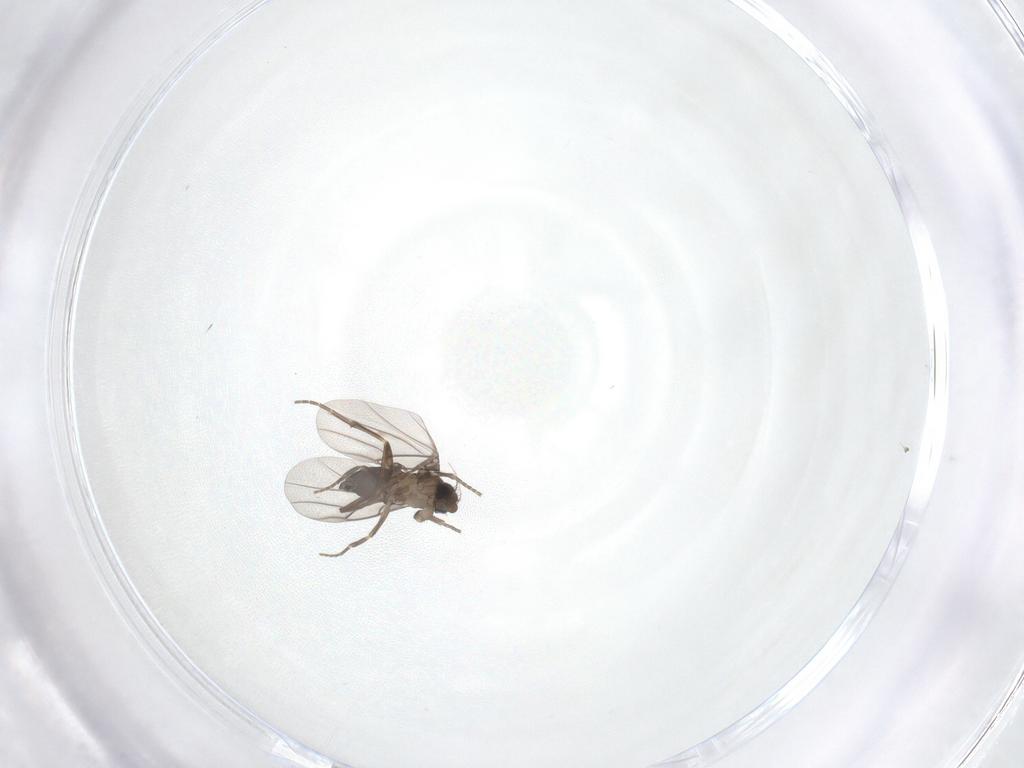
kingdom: Animalia
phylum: Arthropoda
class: Insecta
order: Diptera
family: Phoridae
